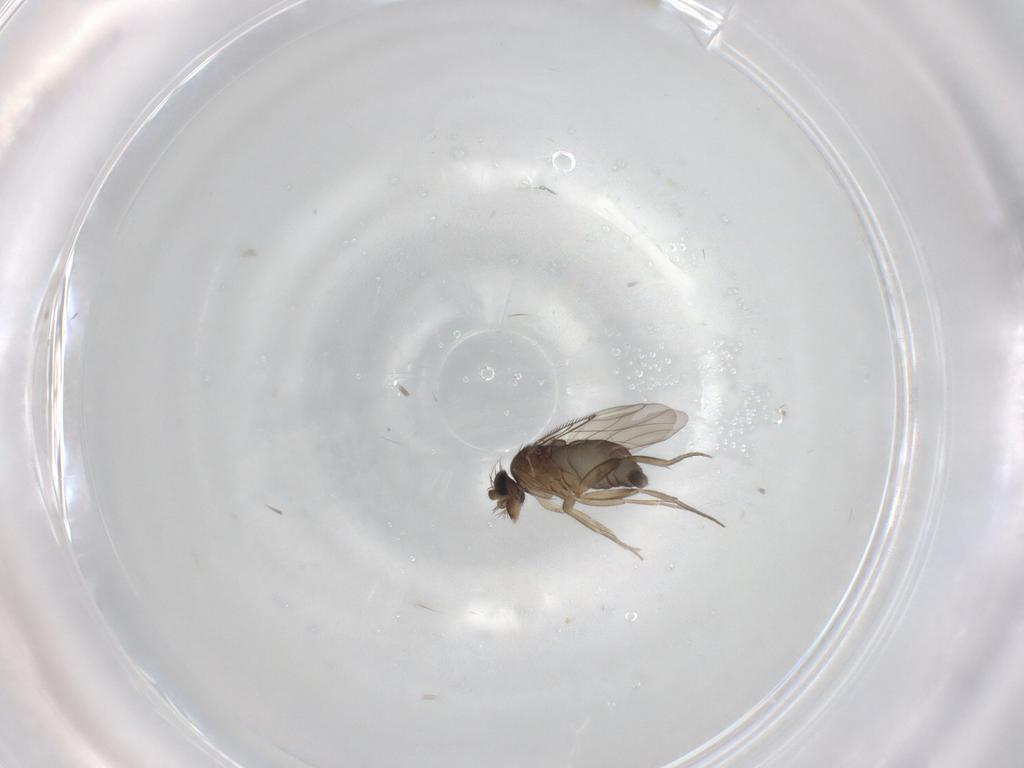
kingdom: Animalia
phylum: Arthropoda
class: Insecta
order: Diptera
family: Phoridae
